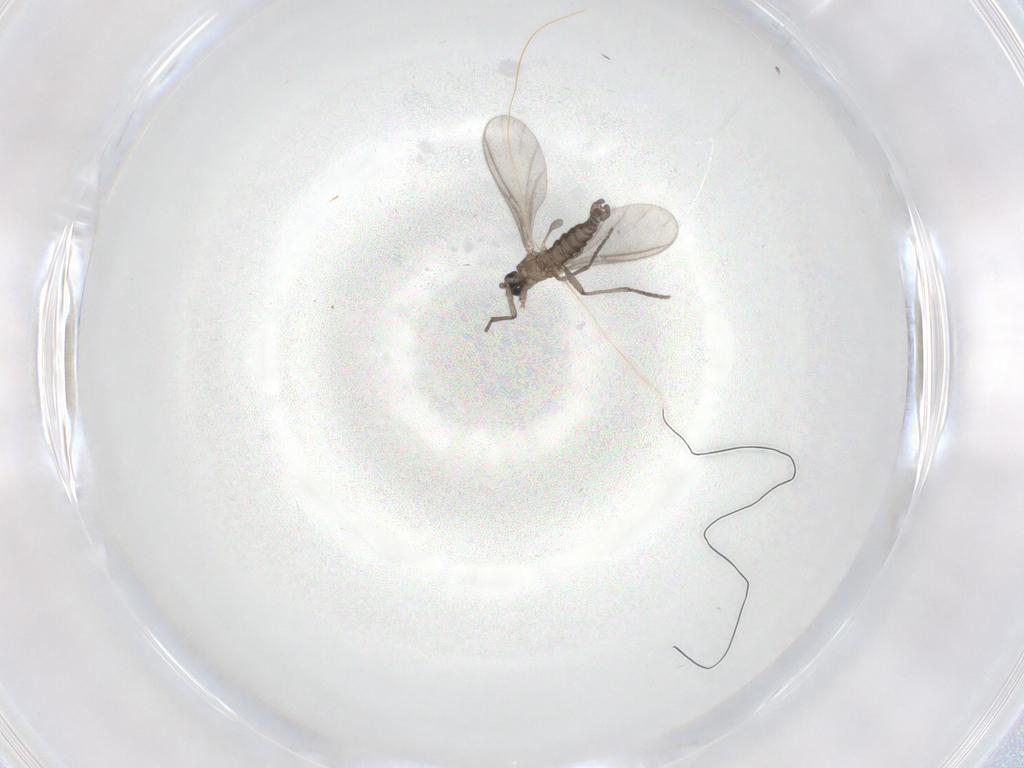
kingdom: Animalia
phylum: Arthropoda
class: Insecta
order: Diptera
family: Sciaridae
